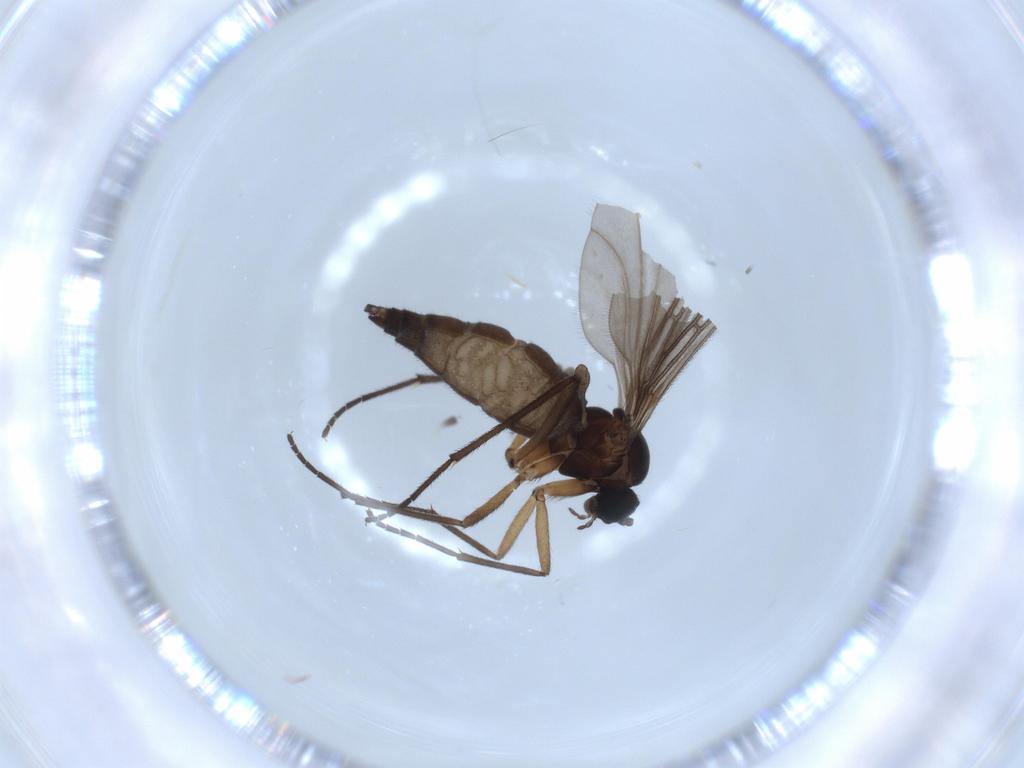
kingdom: Animalia
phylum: Arthropoda
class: Insecta
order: Diptera
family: Sciaridae
